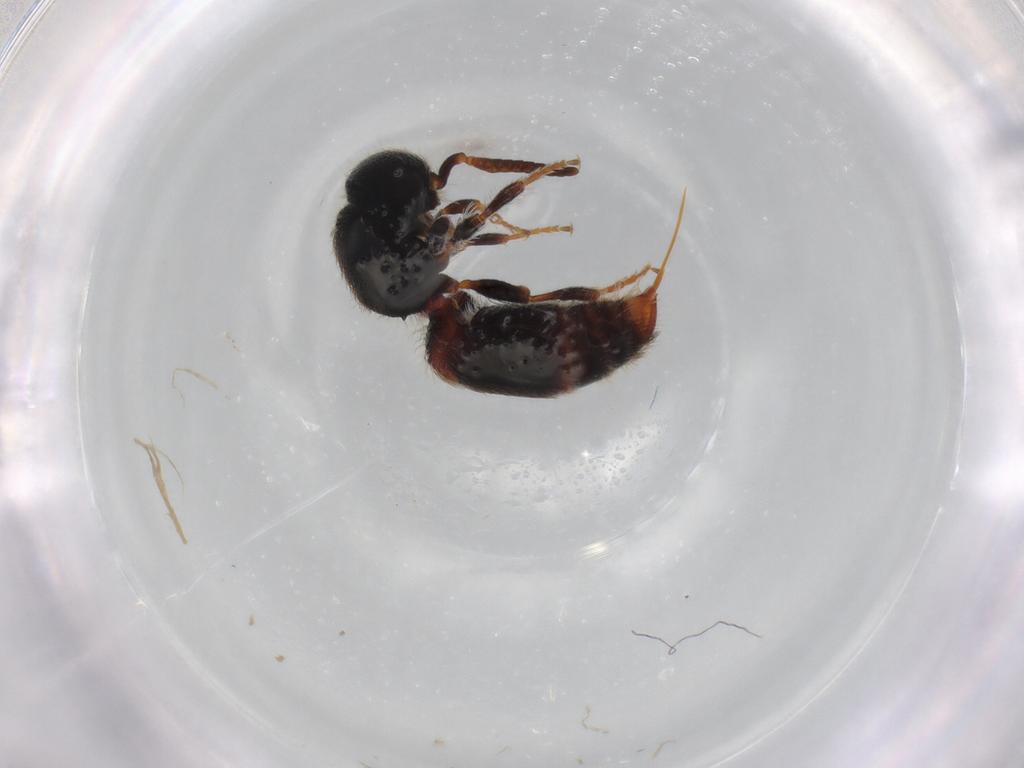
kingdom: Animalia
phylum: Arthropoda
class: Insecta
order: Hymenoptera
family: Mutillidae
